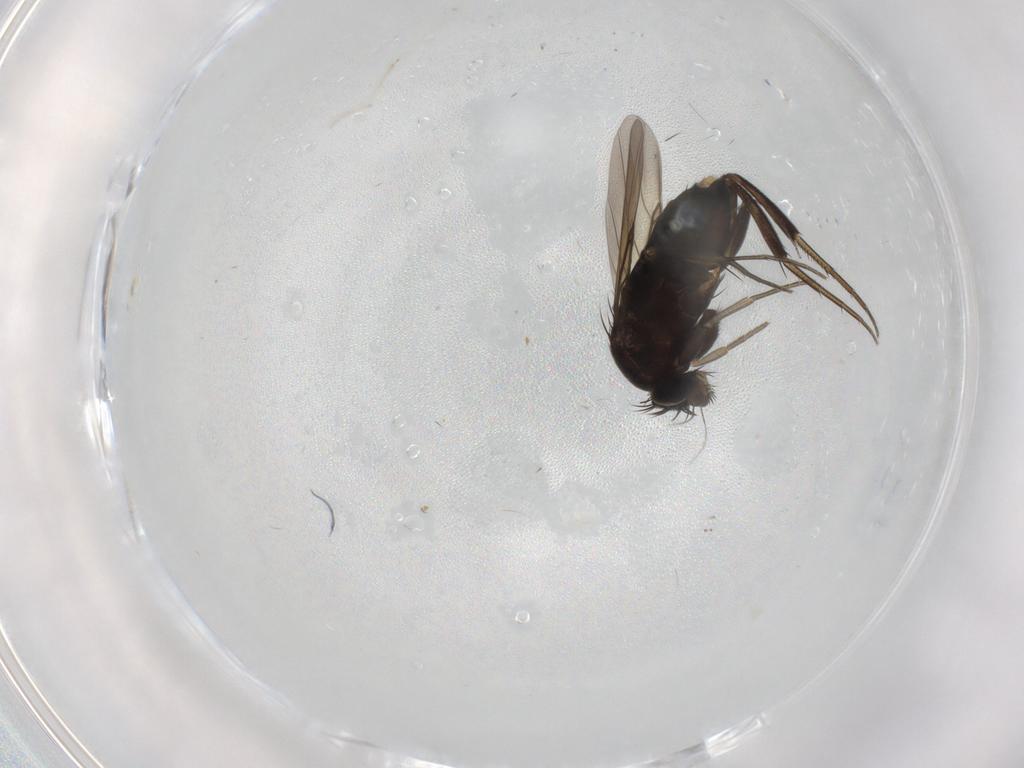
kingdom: Animalia
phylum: Arthropoda
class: Insecta
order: Diptera
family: Phoridae
